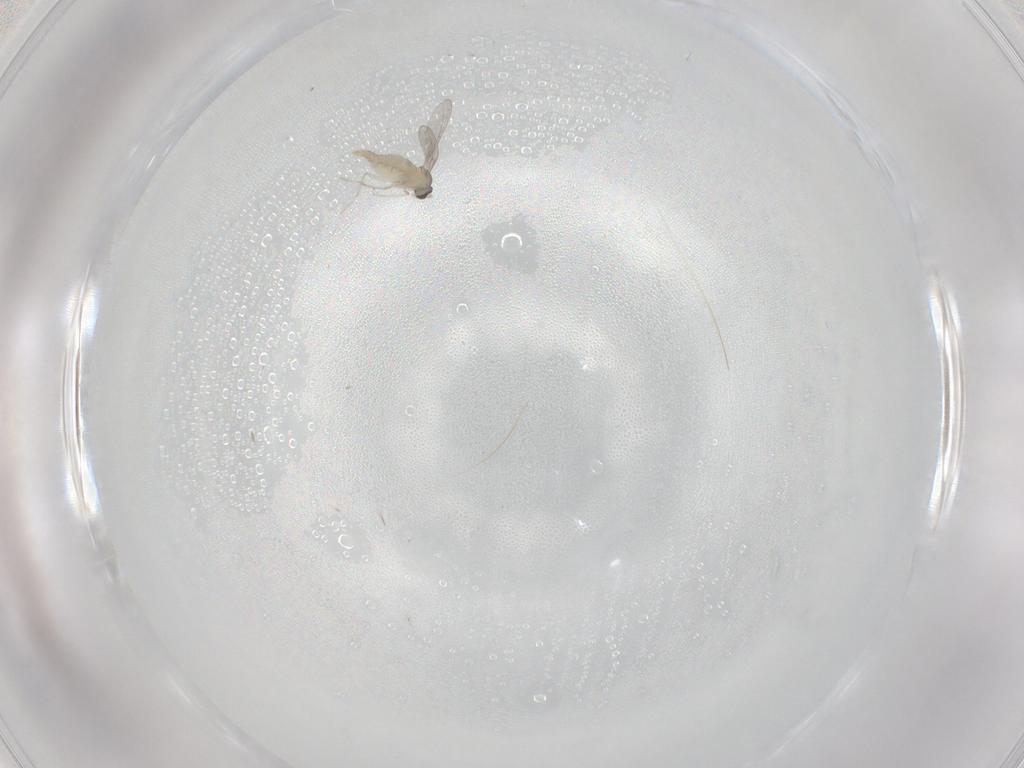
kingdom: Animalia
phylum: Arthropoda
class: Insecta
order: Diptera
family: Cecidomyiidae
